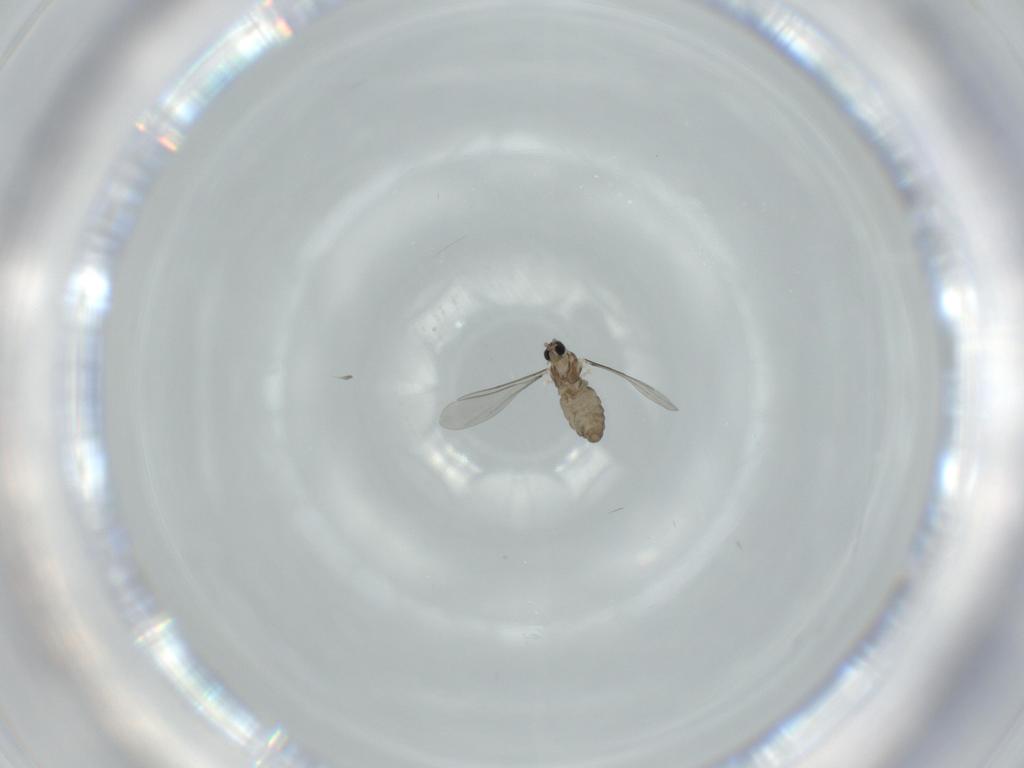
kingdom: Animalia
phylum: Arthropoda
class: Insecta
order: Diptera
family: Cecidomyiidae
